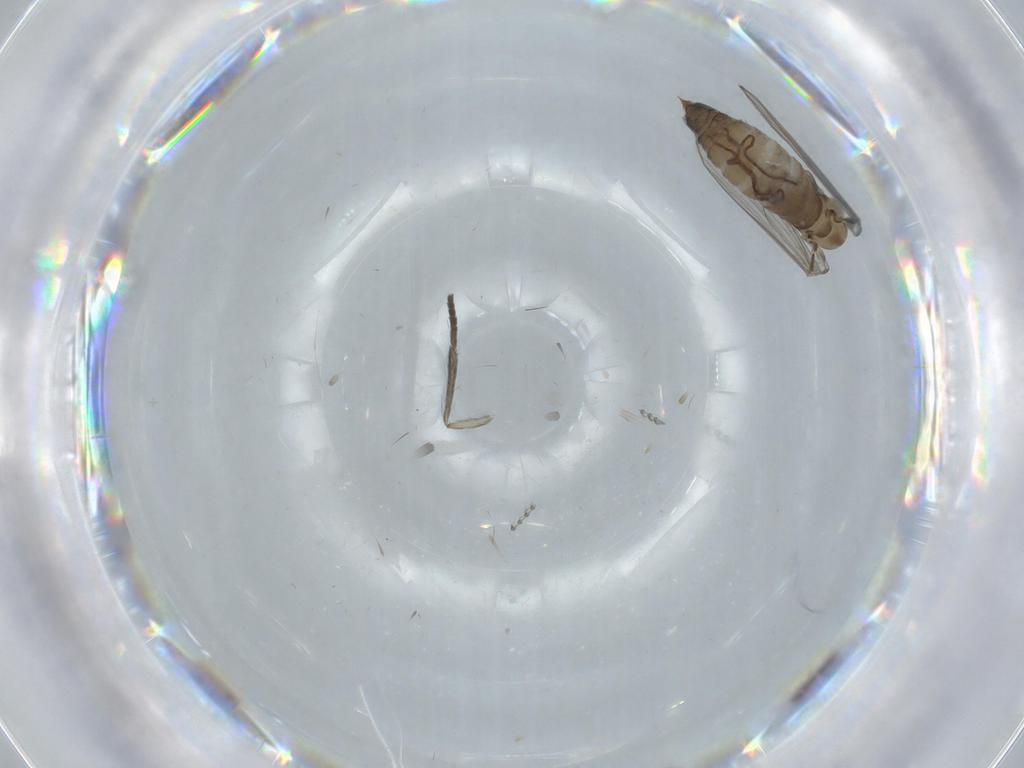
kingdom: Animalia
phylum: Arthropoda
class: Insecta
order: Diptera
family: Psychodidae
